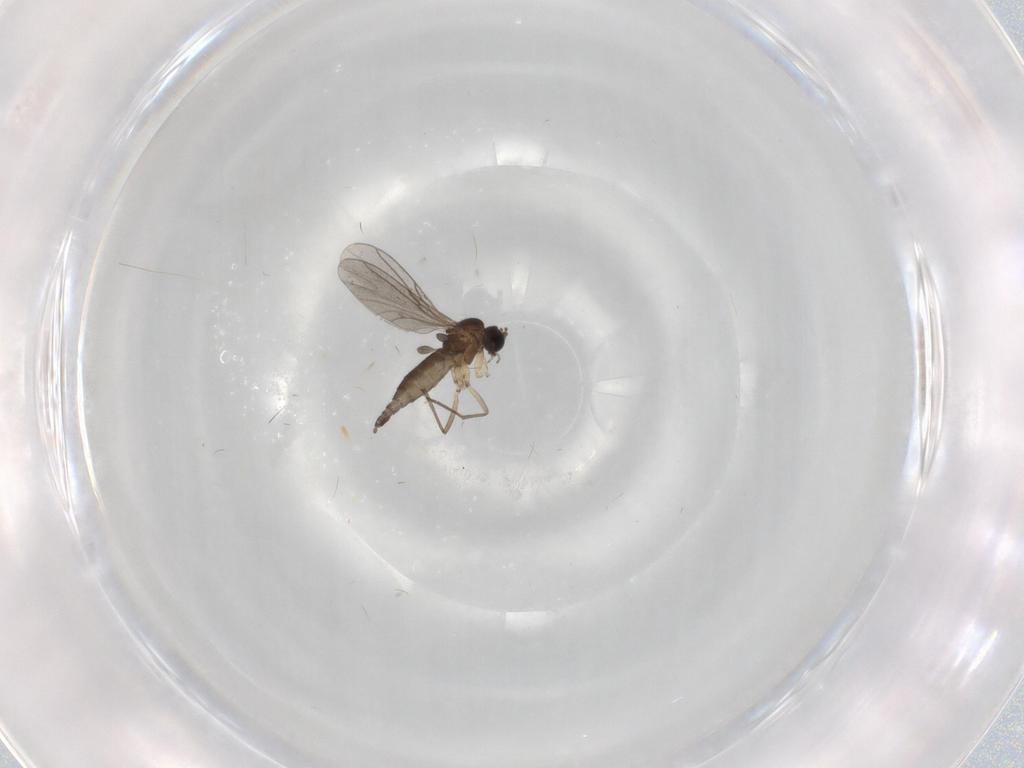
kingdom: Animalia
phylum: Arthropoda
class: Insecta
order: Diptera
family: Sciaridae
